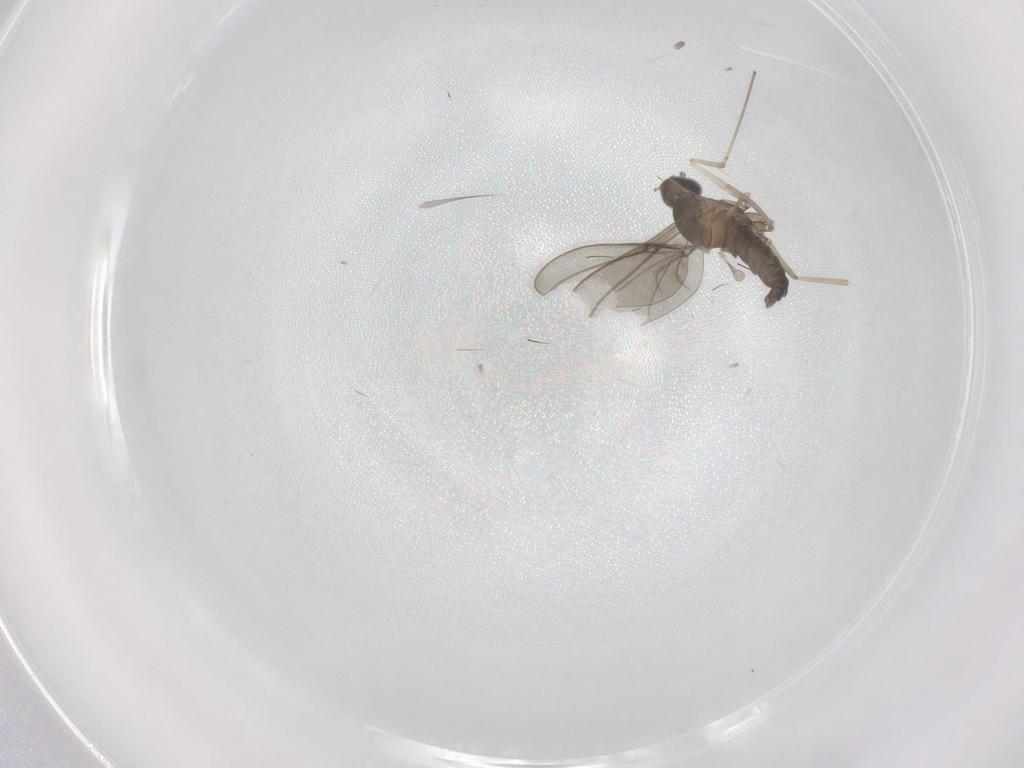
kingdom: Animalia
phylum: Arthropoda
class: Insecta
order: Diptera
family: Cecidomyiidae
